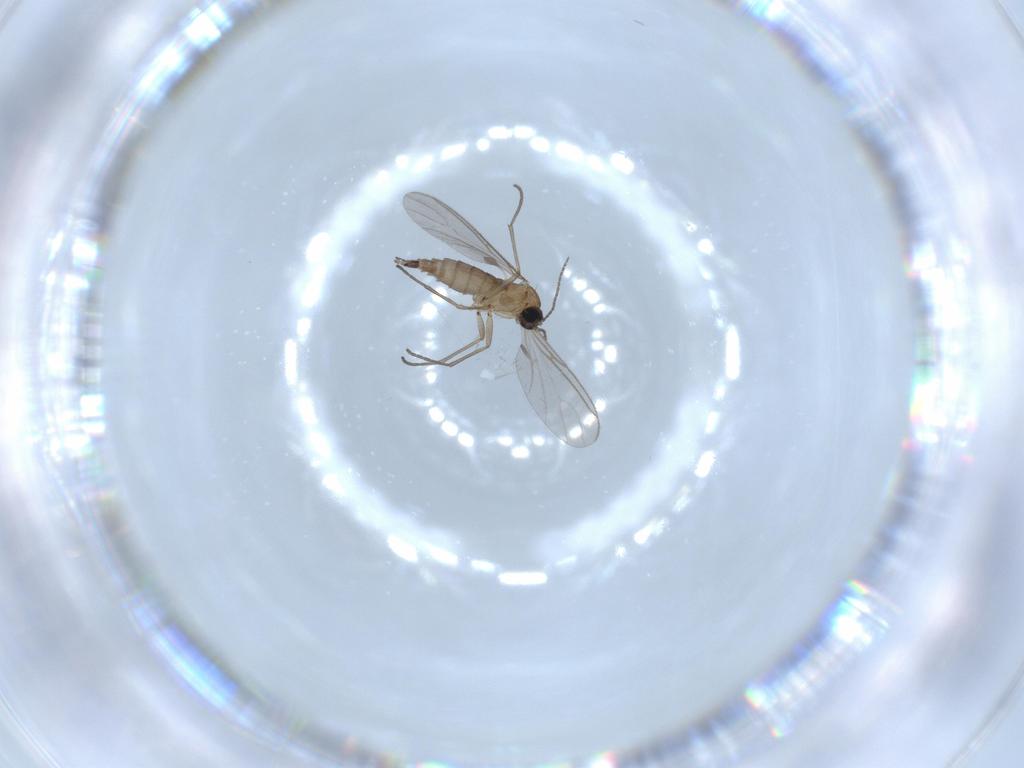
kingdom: Animalia
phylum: Arthropoda
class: Insecta
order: Diptera
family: Sciaridae
